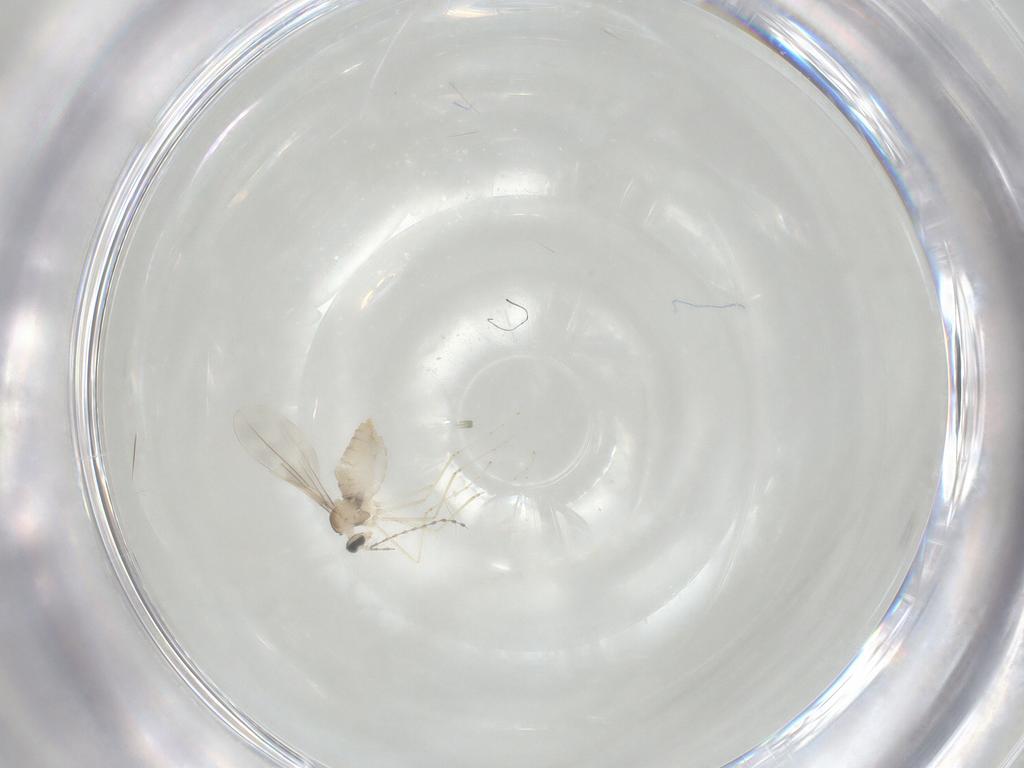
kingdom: Animalia
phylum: Arthropoda
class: Insecta
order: Diptera
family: Cecidomyiidae
